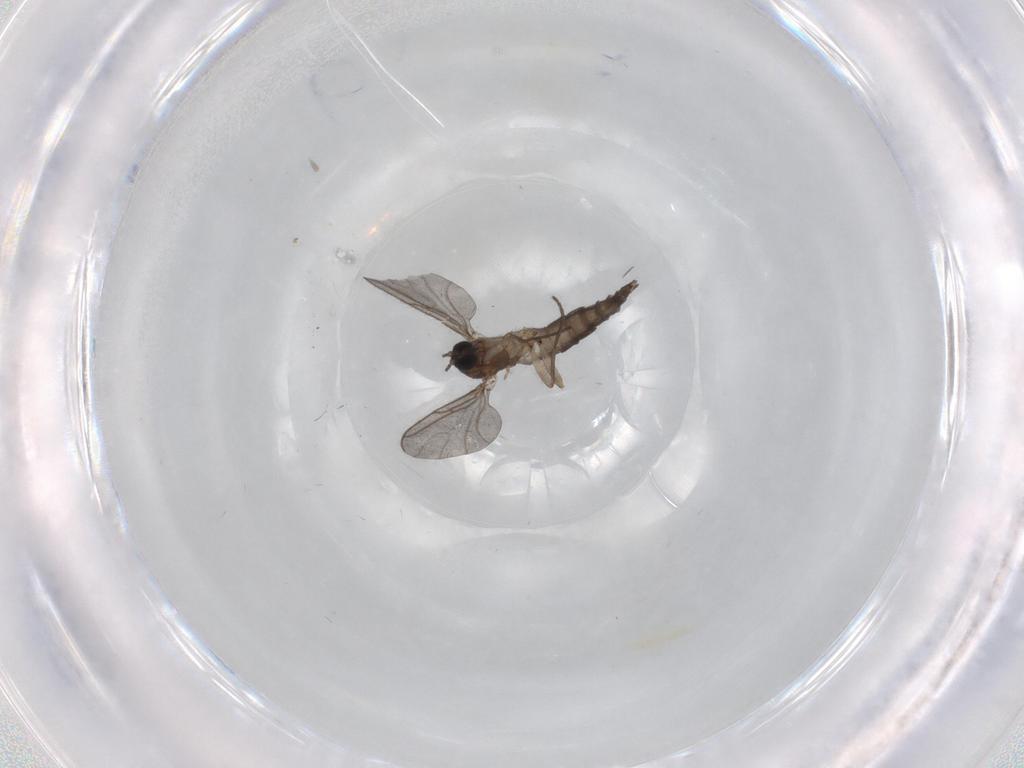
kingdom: Animalia
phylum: Arthropoda
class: Insecta
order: Diptera
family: Sciaridae
